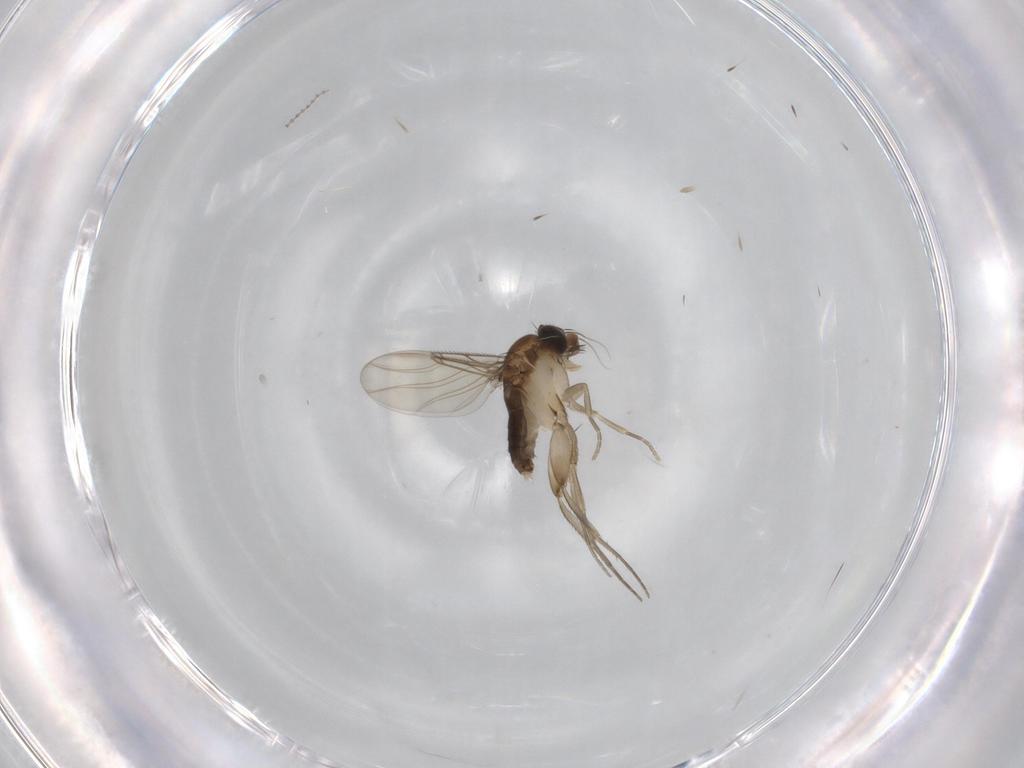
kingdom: Animalia
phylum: Arthropoda
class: Insecta
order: Diptera
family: Phoridae
